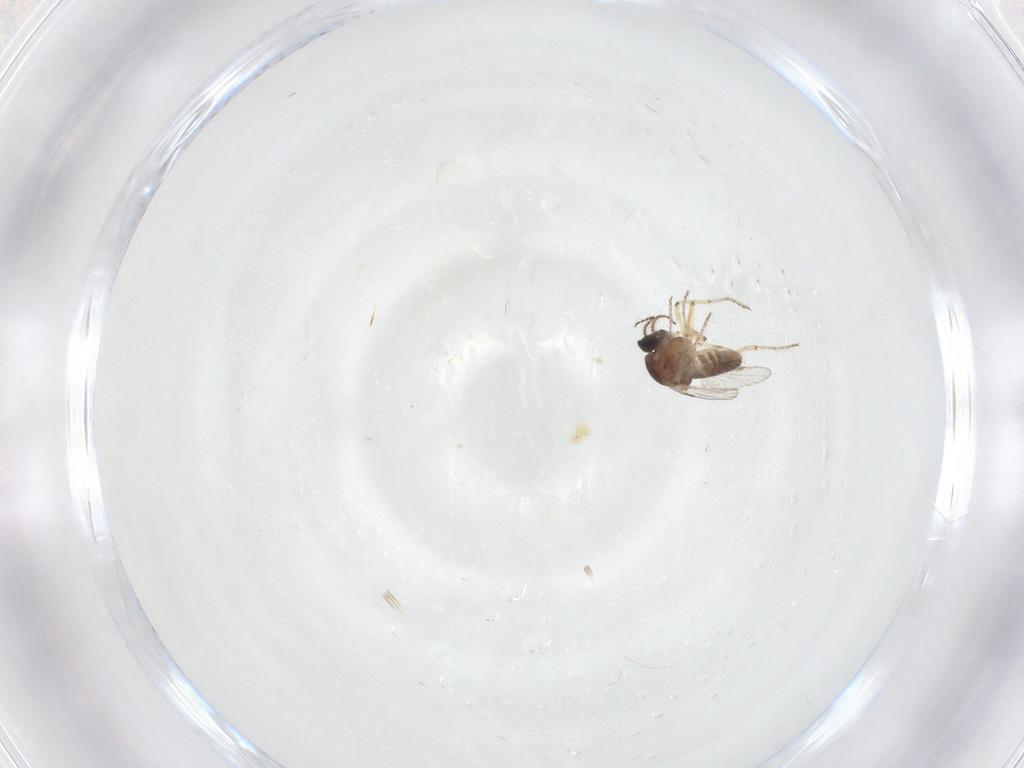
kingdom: Animalia
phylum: Arthropoda
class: Insecta
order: Diptera
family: Ceratopogonidae
